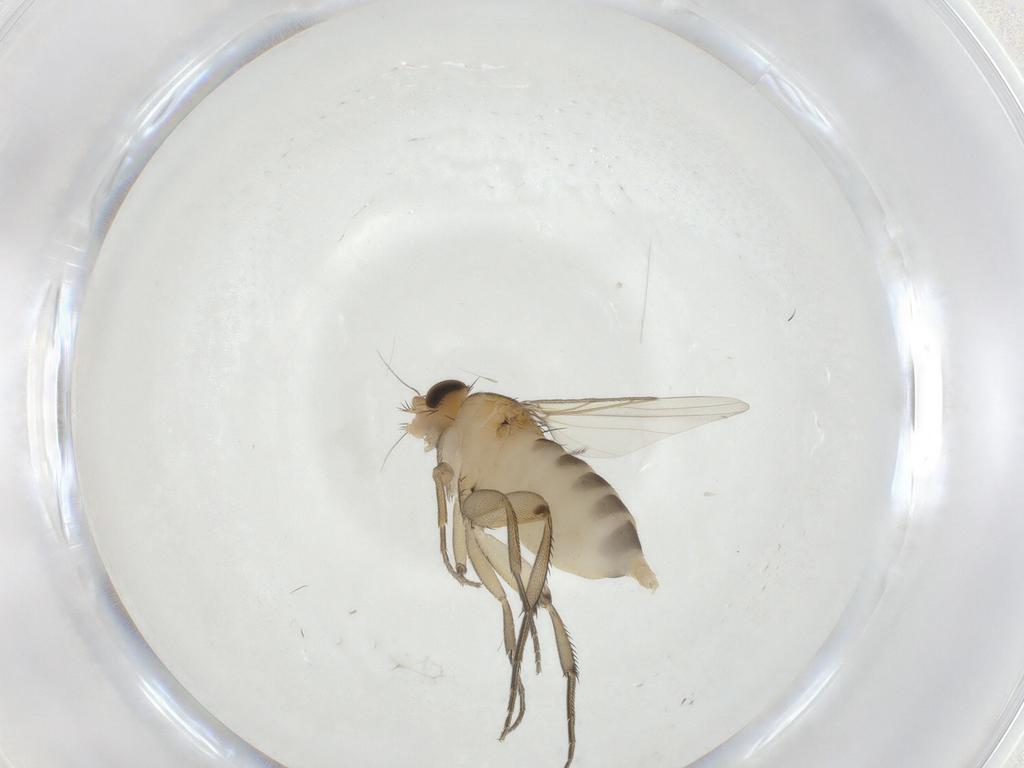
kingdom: Animalia
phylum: Arthropoda
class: Insecta
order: Diptera
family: Phoridae
